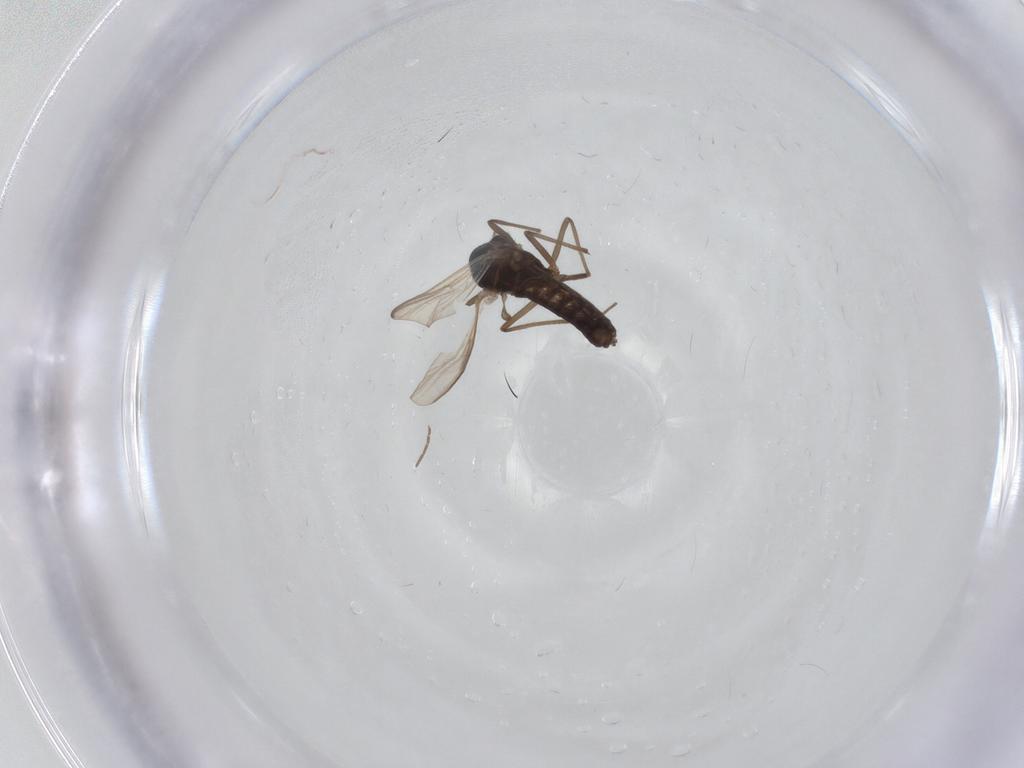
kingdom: Animalia
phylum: Arthropoda
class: Insecta
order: Diptera
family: Chironomidae
